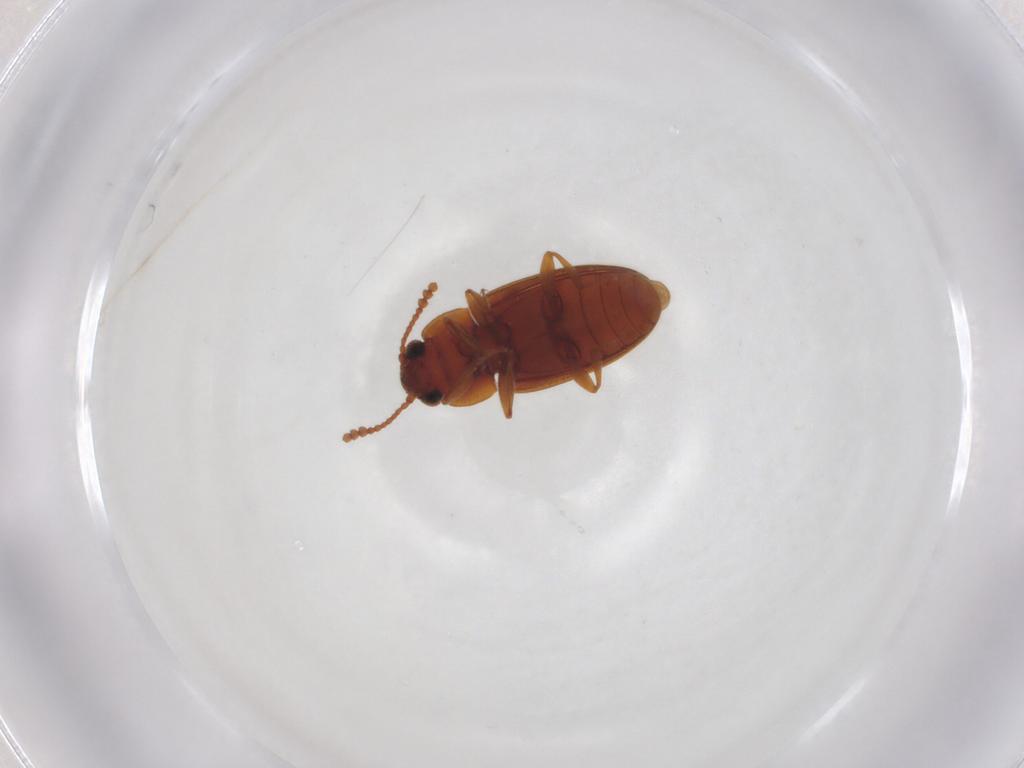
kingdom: Animalia
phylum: Arthropoda
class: Insecta
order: Coleoptera
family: Erotylidae
